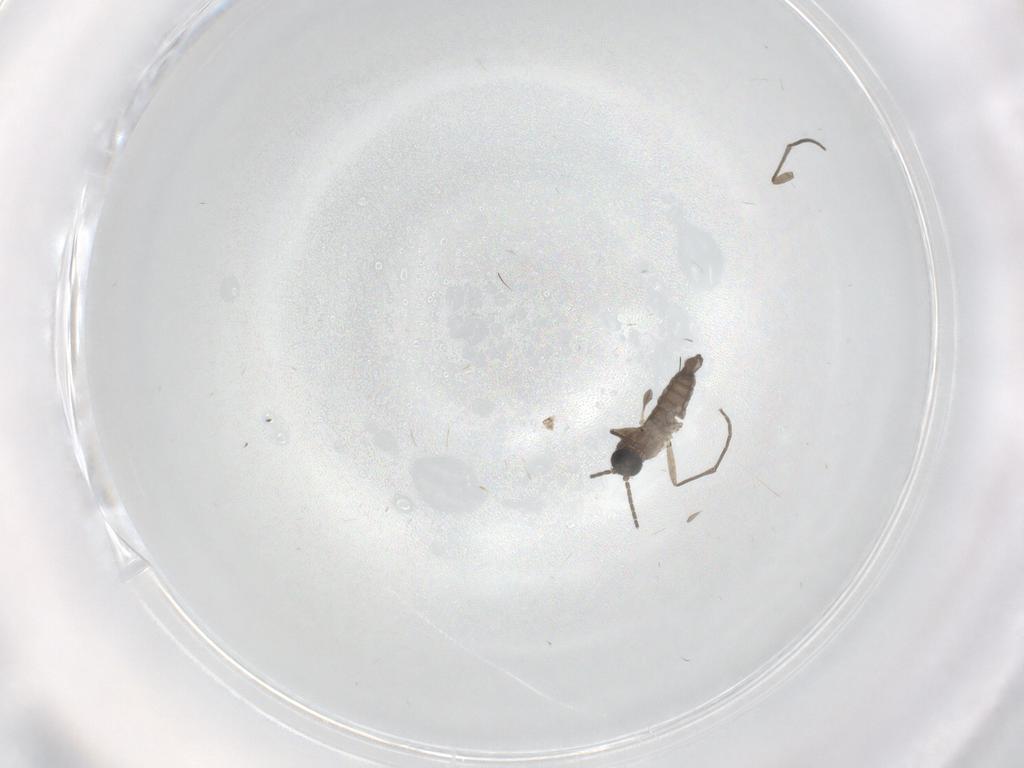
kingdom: Animalia
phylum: Arthropoda
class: Insecta
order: Diptera
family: Sciaridae
